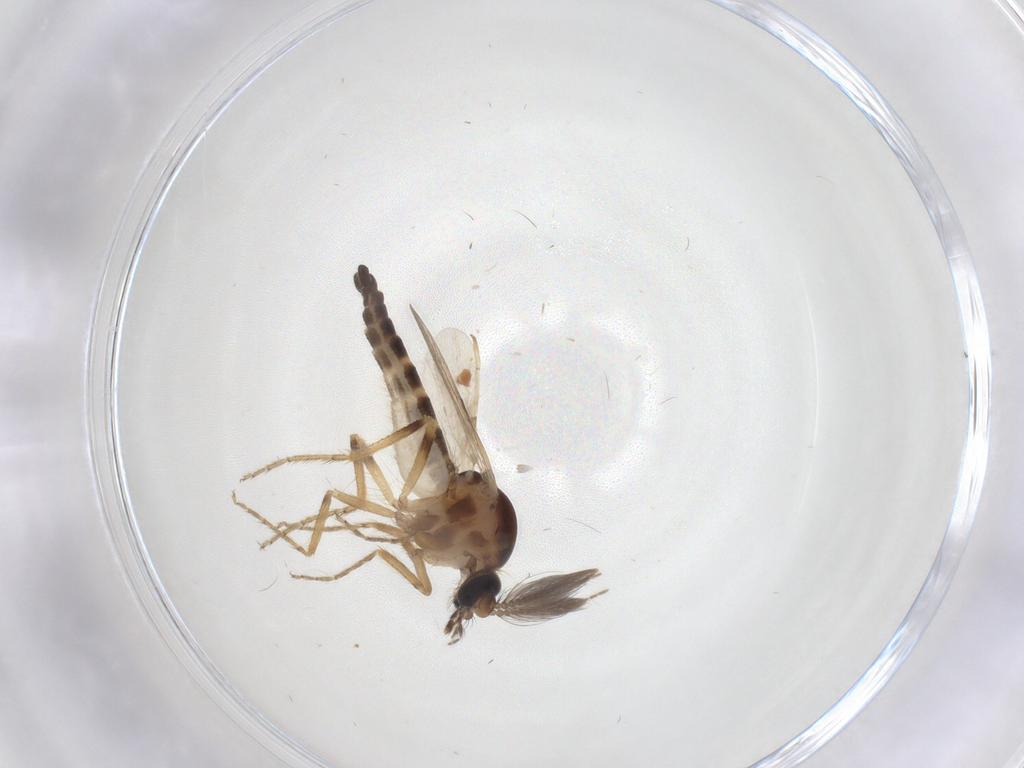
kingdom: Animalia
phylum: Arthropoda
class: Insecta
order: Diptera
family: Ceratopogonidae
